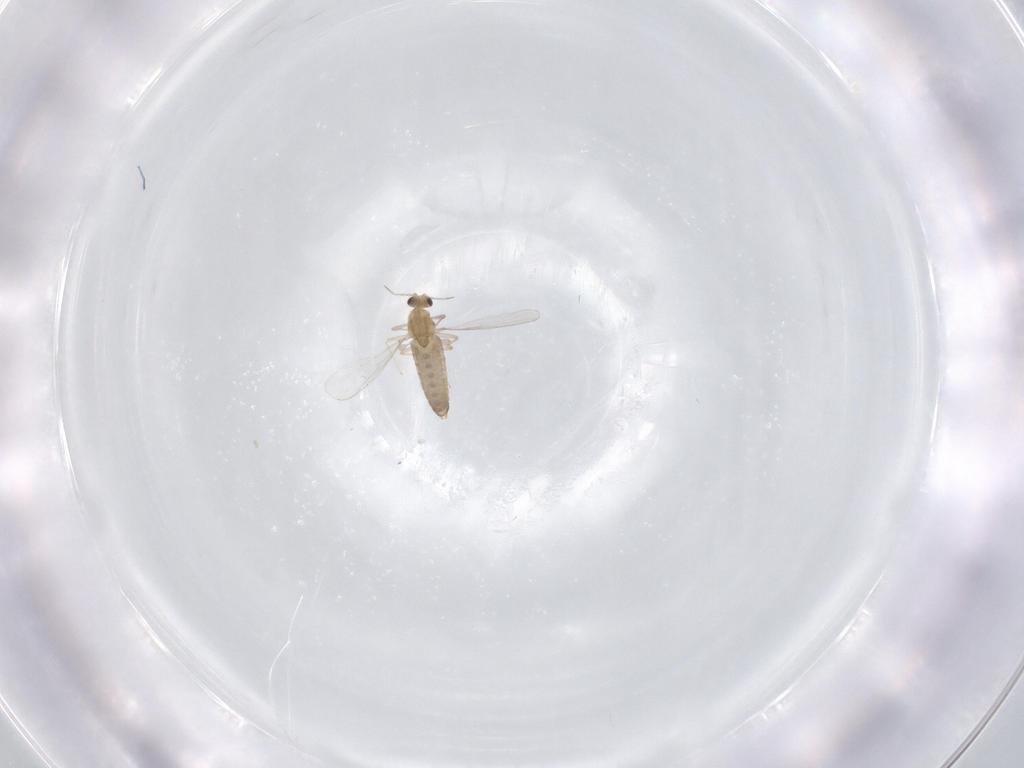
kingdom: Animalia
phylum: Arthropoda
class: Insecta
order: Diptera
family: Chironomidae
